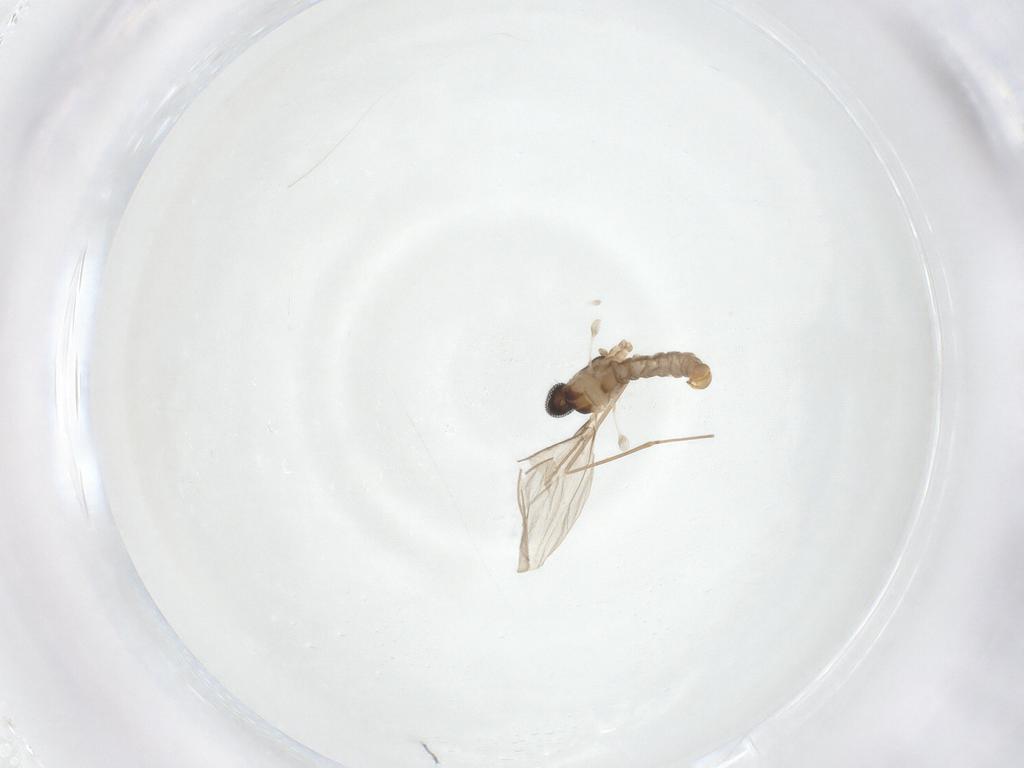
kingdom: Animalia
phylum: Arthropoda
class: Insecta
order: Diptera
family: Cecidomyiidae
